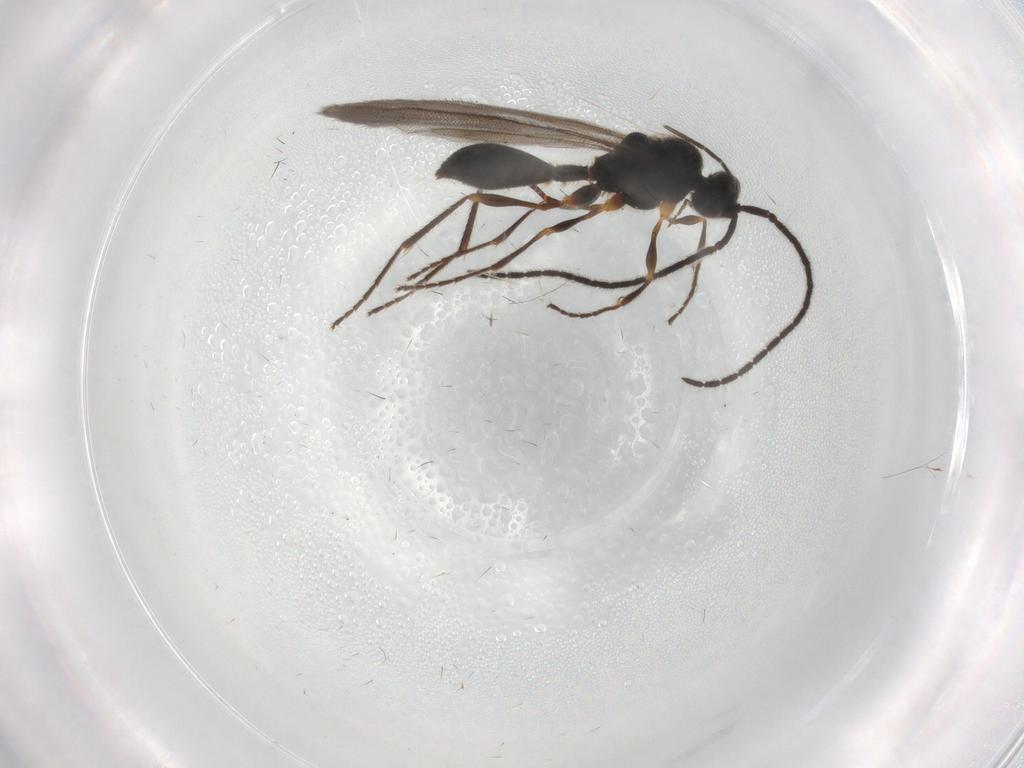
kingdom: Animalia
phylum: Arthropoda
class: Insecta
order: Hymenoptera
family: Diapriidae
